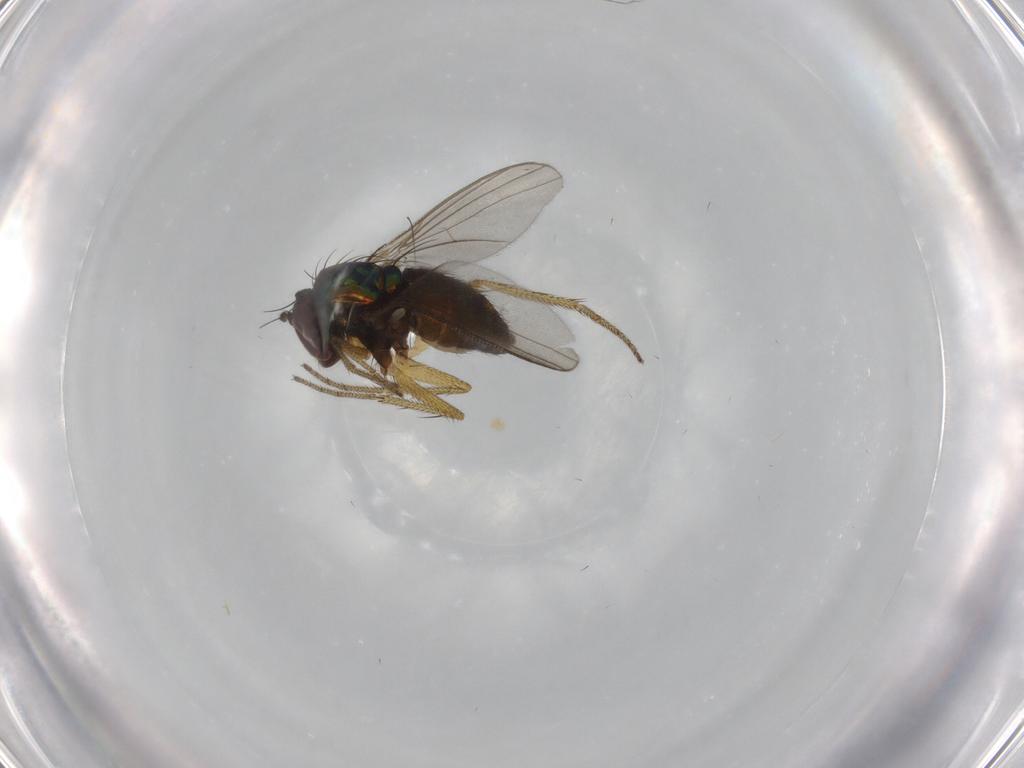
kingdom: Animalia
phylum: Arthropoda
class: Insecta
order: Diptera
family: Dolichopodidae
